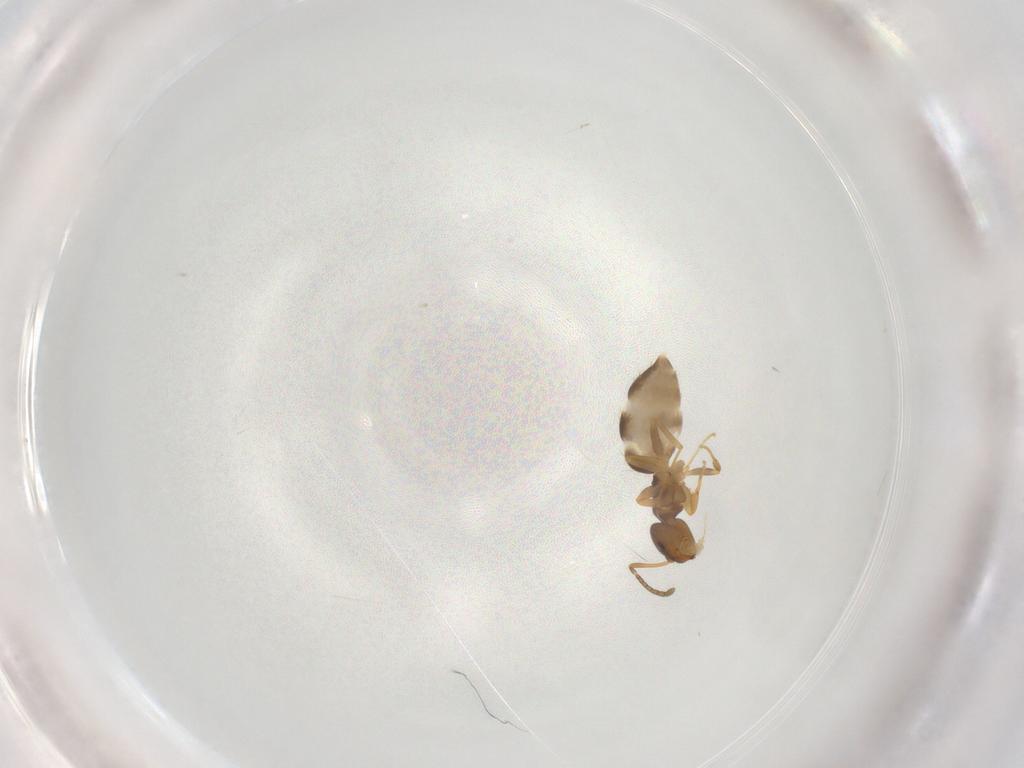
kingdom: Animalia
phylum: Arthropoda
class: Insecta
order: Hymenoptera
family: Formicidae
